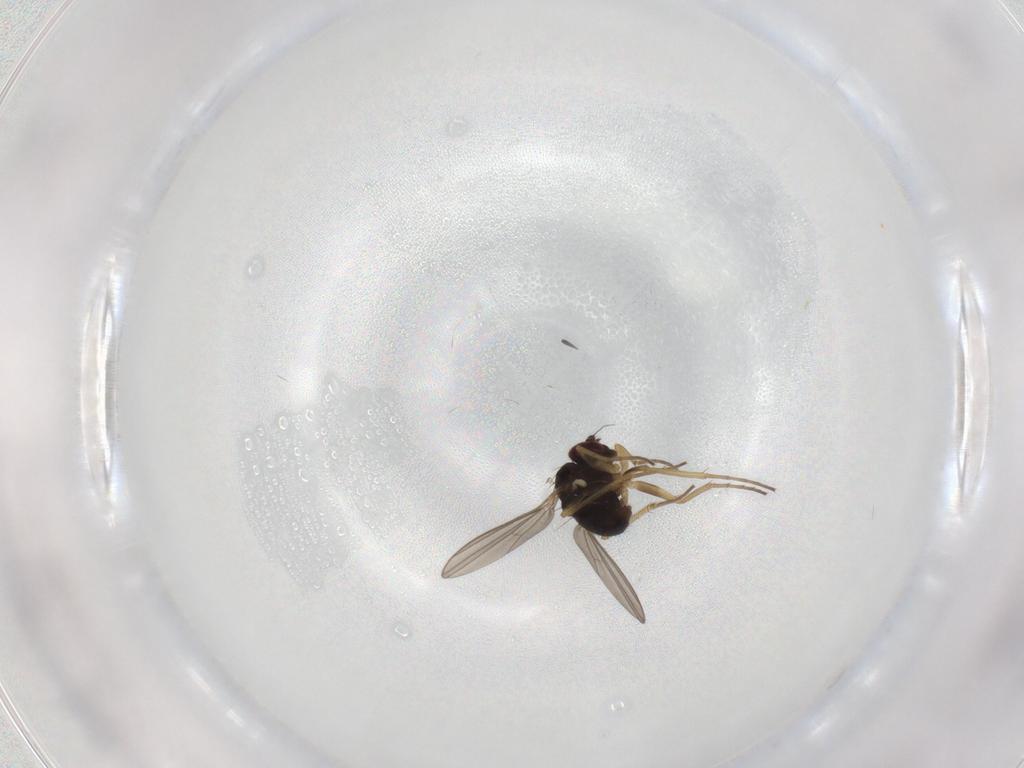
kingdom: Animalia
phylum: Arthropoda
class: Insecta
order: Diptera
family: Dolichopodidae
